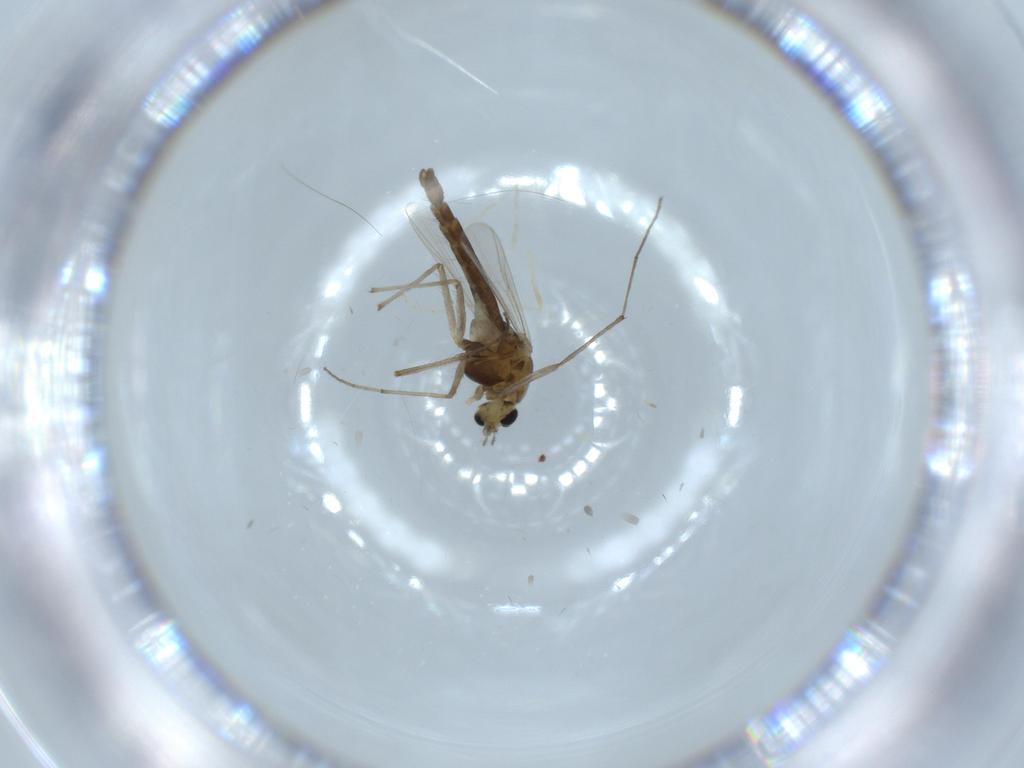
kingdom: Animalia
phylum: Arthropoda
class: Insecta
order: Diptera
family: Chironomidae
